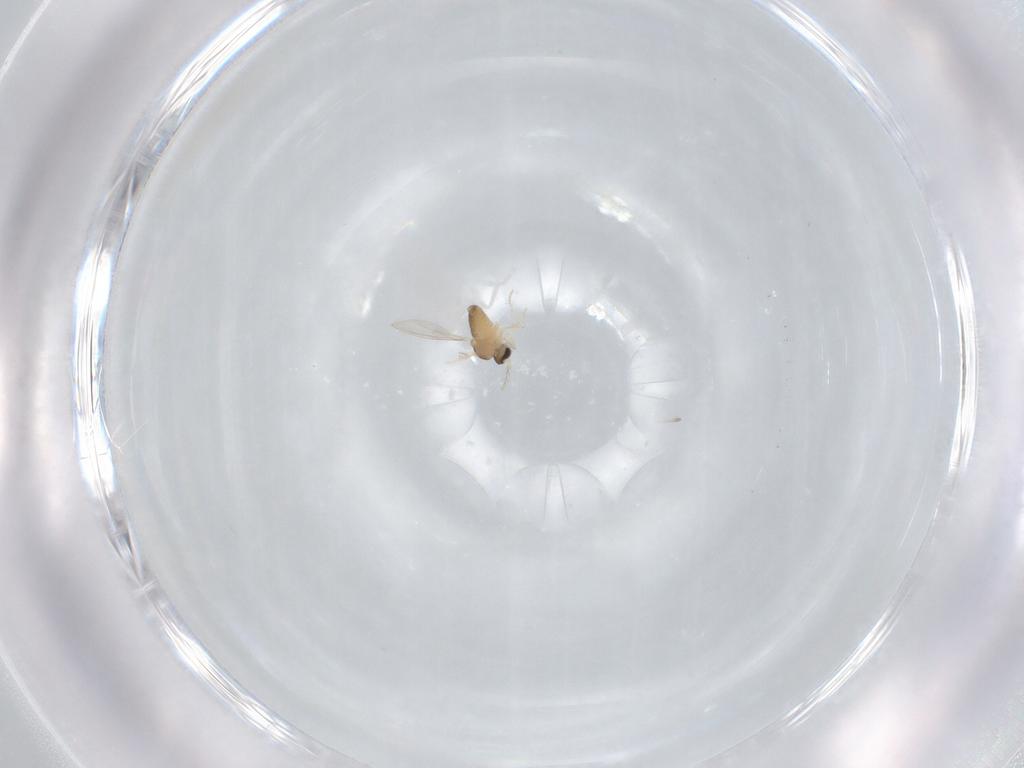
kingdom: Animalia
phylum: Arthropoda
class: Insecta
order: Diptera
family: Cecidomyiidae
